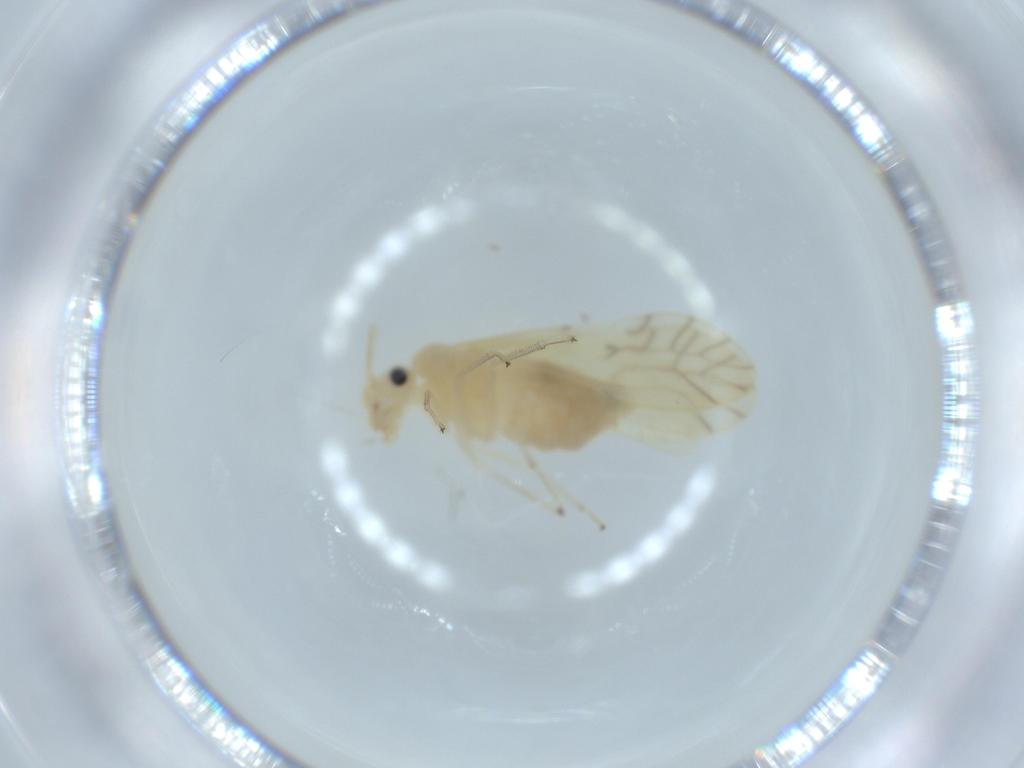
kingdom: Animalia
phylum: Arthropoda
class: Insecta
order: Psocodea
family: Caeciliusidae
